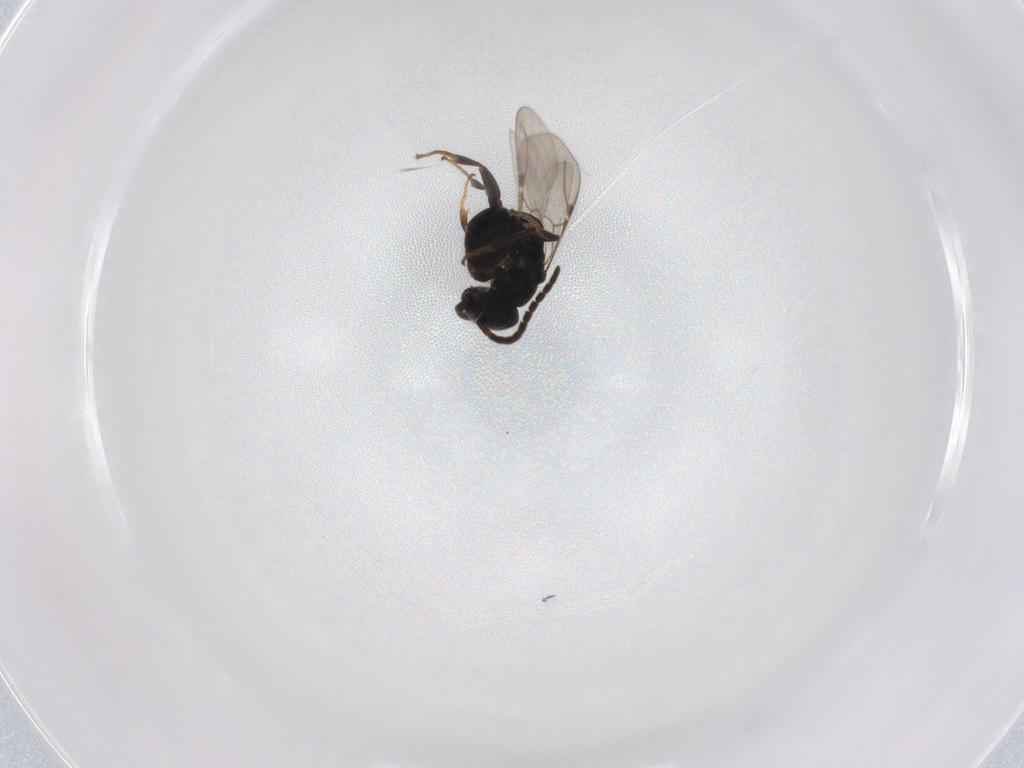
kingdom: Animalia
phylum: Arthropoda
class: Insecta
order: Hymenoptera
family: Bethylidae
